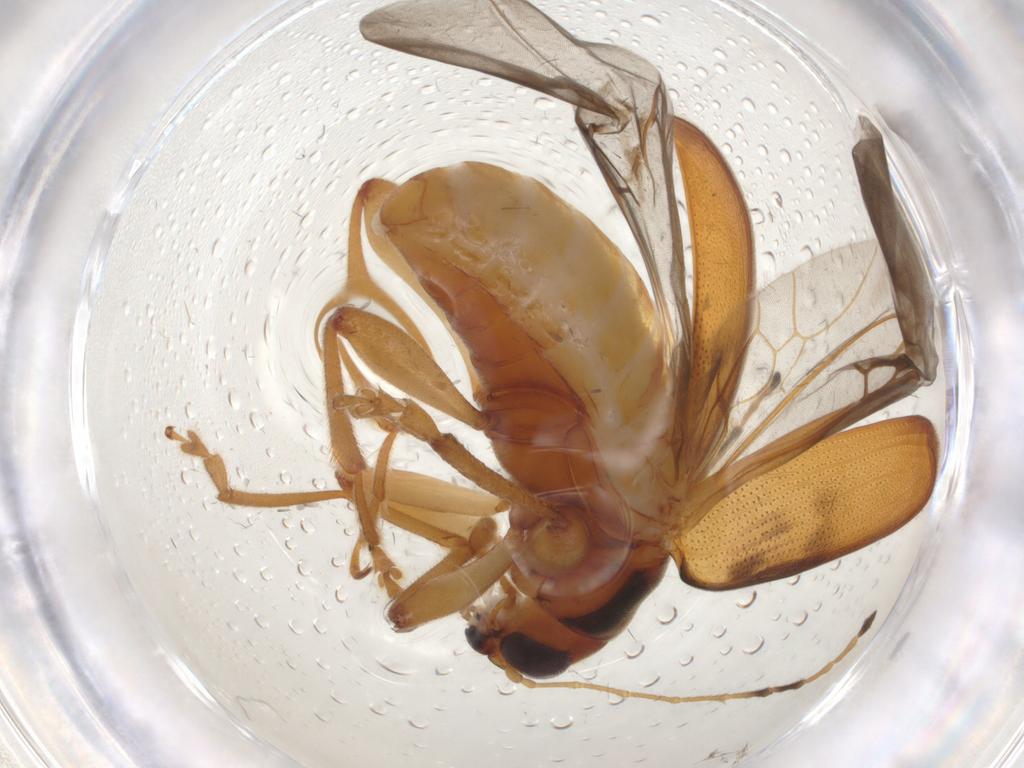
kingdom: Animalia
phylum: Arthropoda
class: Insecta
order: Coleoptera
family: Chrysomelidae
